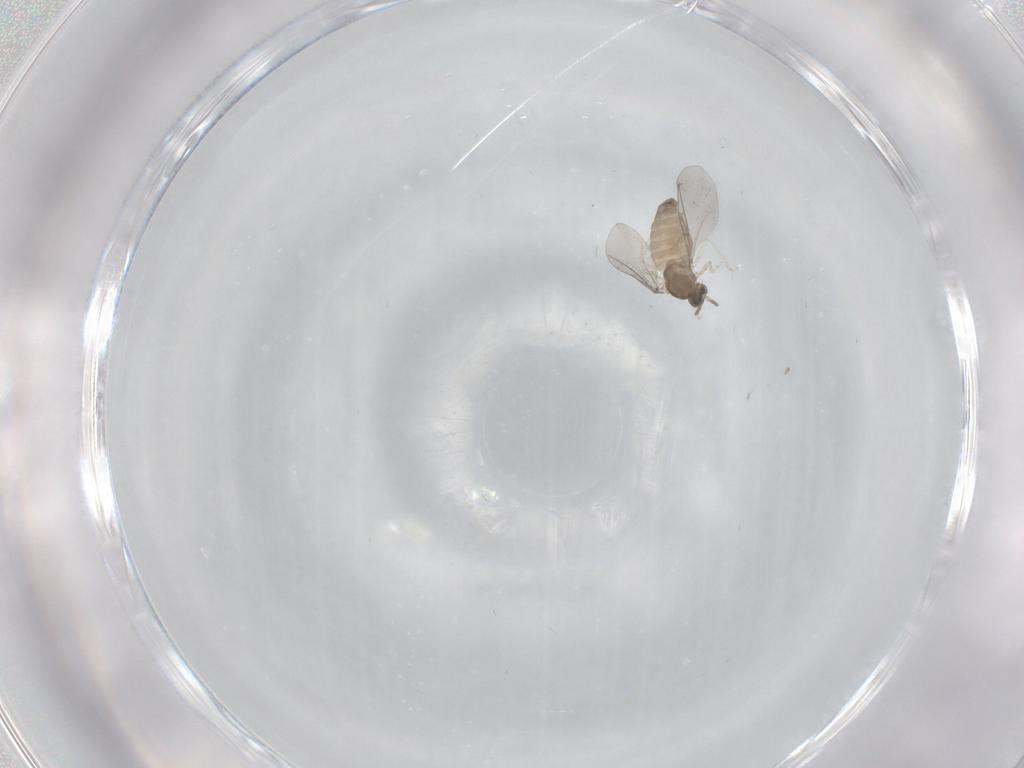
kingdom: Animalia
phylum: Arthropoda
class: Insecta
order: Diptera
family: Cecidomyiidae
